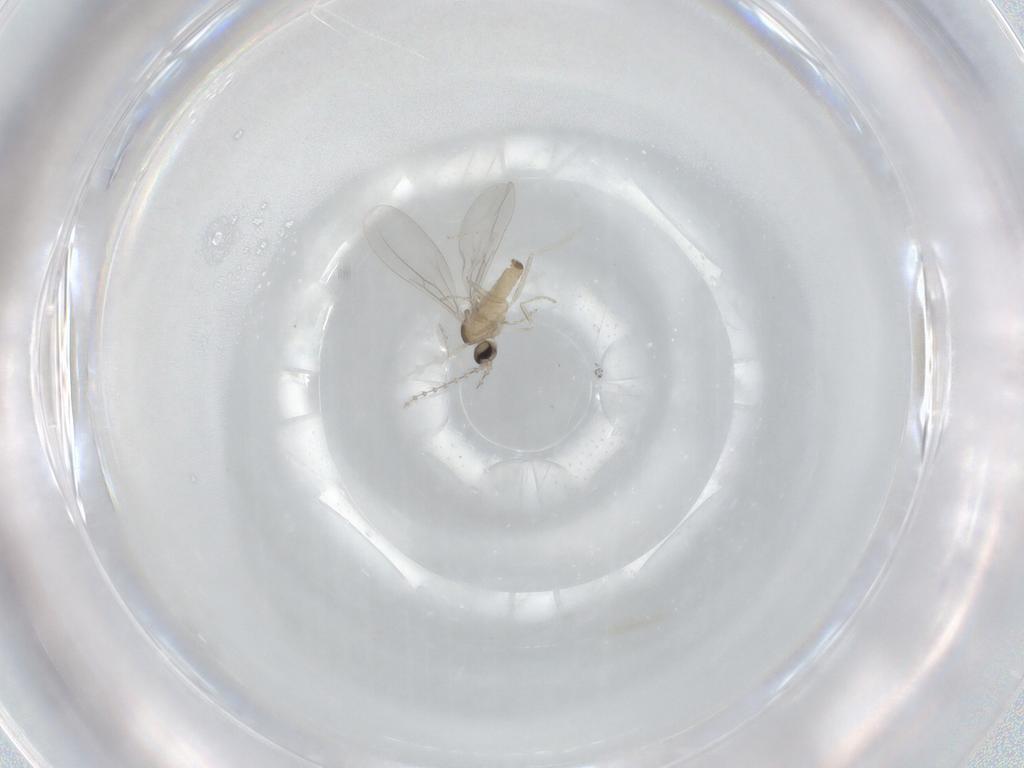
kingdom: Animalia
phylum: Arthropoda
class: Insecta
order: Diptera
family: Cecidomyiidae
